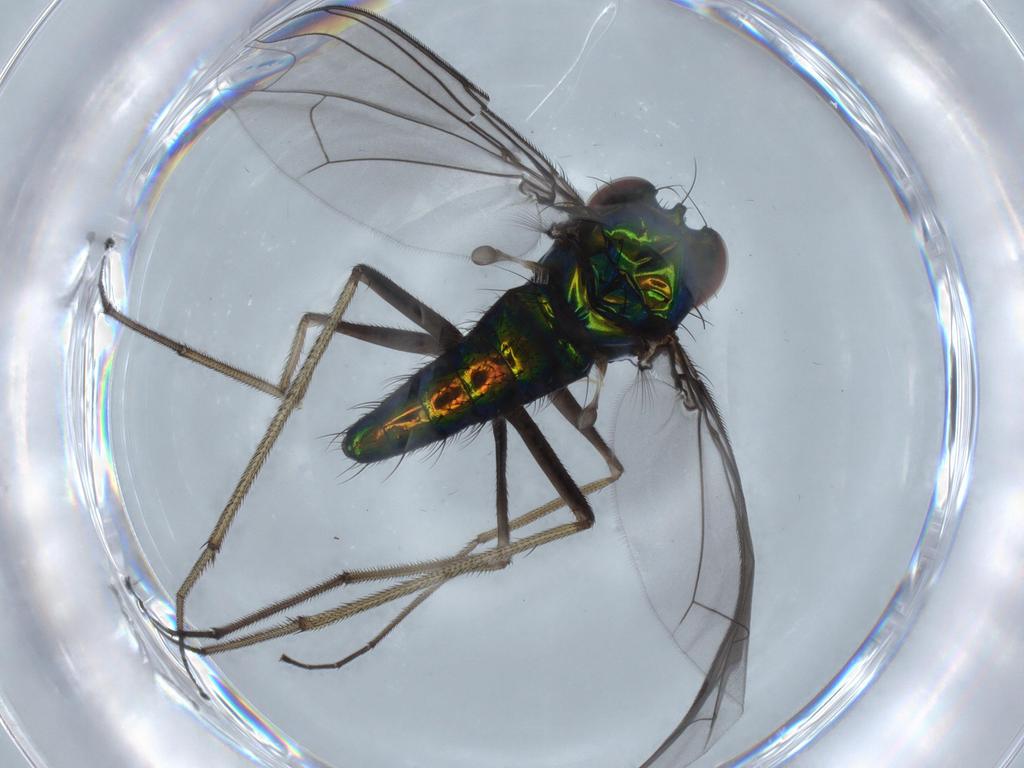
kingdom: Animalia
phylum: Arthropoda
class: Insecta
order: Diptera
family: Dolichopodidae
